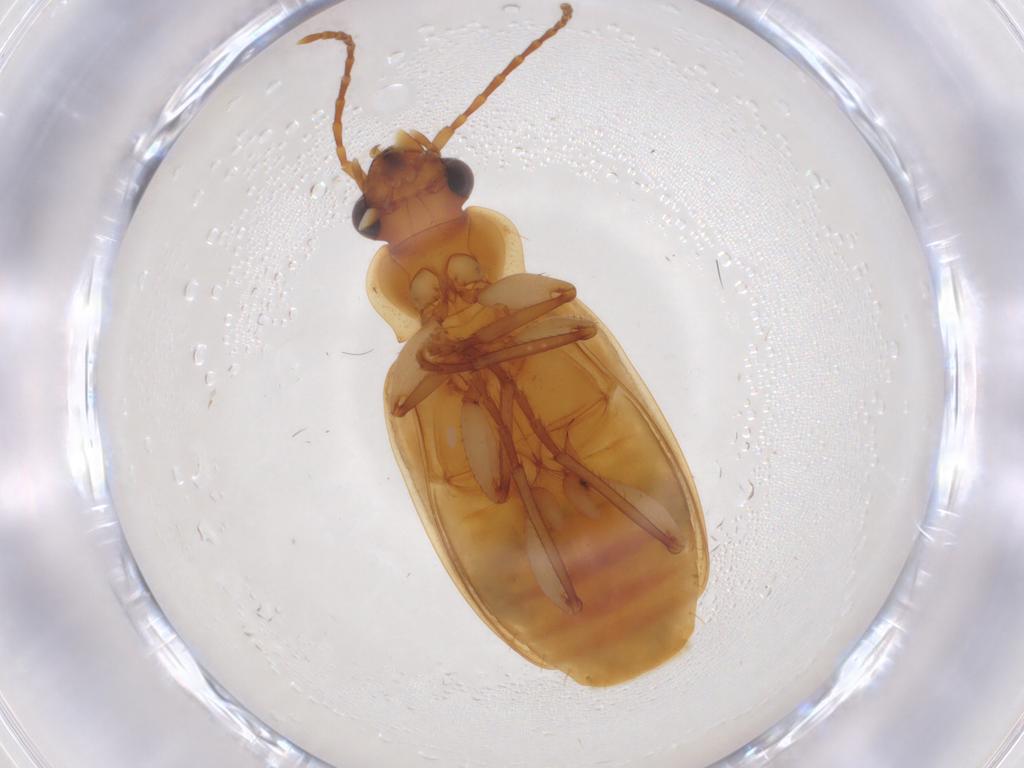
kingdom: Animalia
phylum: Arthropoda
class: Insecta
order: Coleoptera
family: Carabidae
